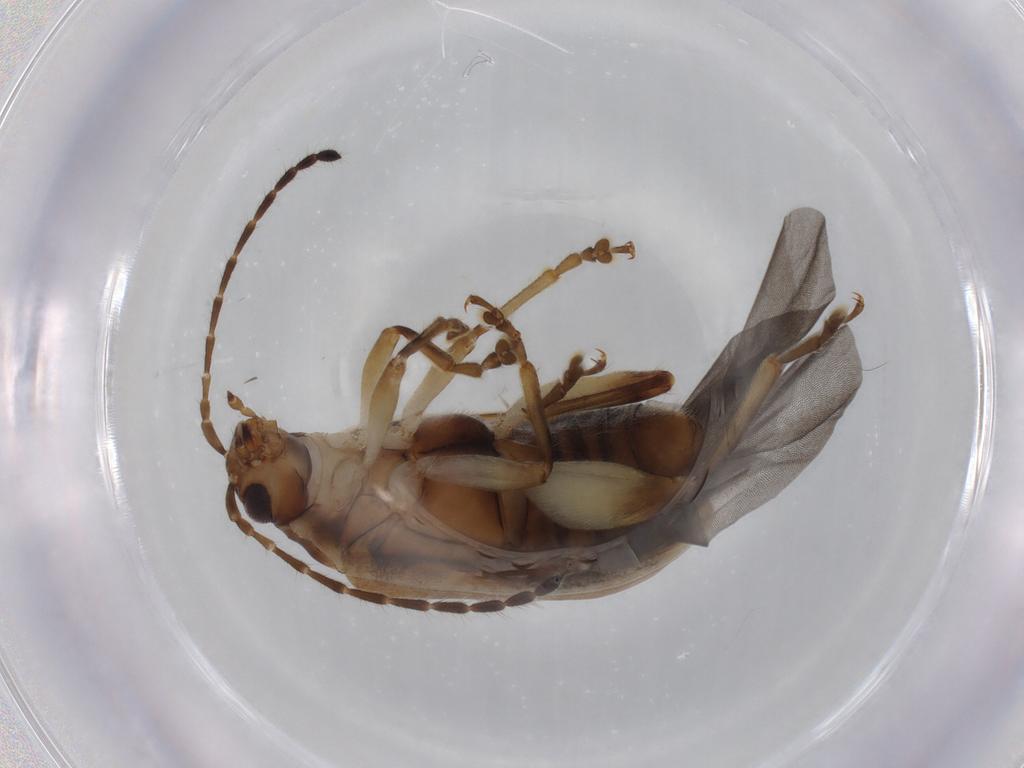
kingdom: Animalia
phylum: Arthropoda
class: Insecta
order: Coleoptera
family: Chrysomelidae
